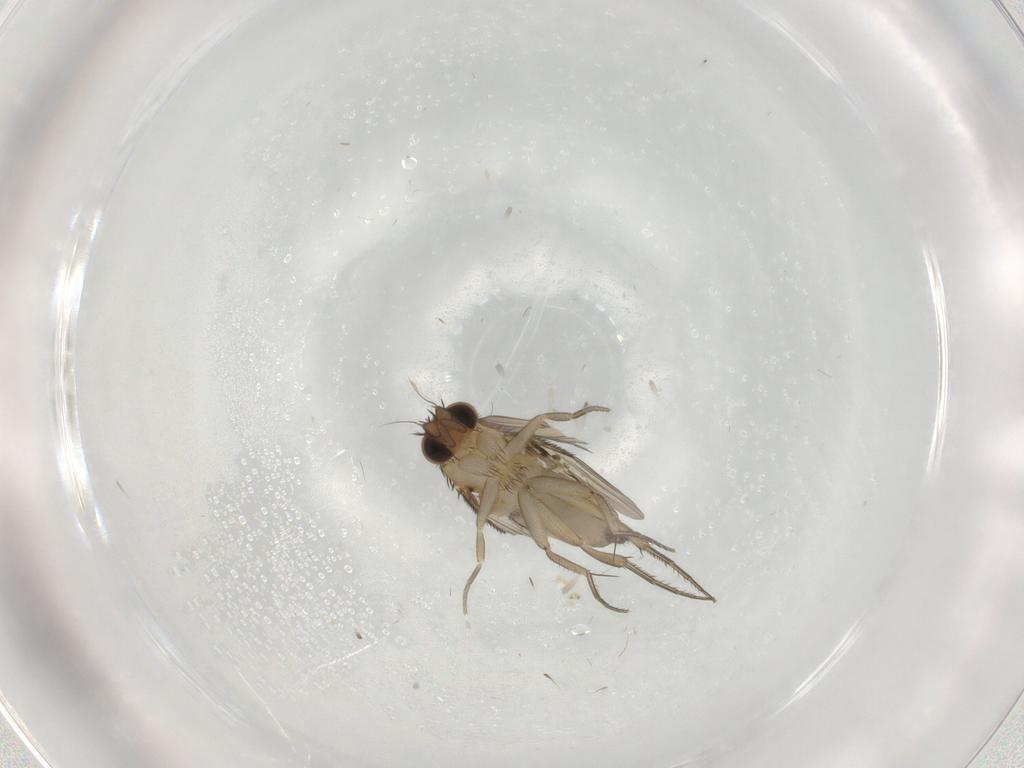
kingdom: Animalia
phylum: Arthropoda
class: Insecta
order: Diptera
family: Phoridae
